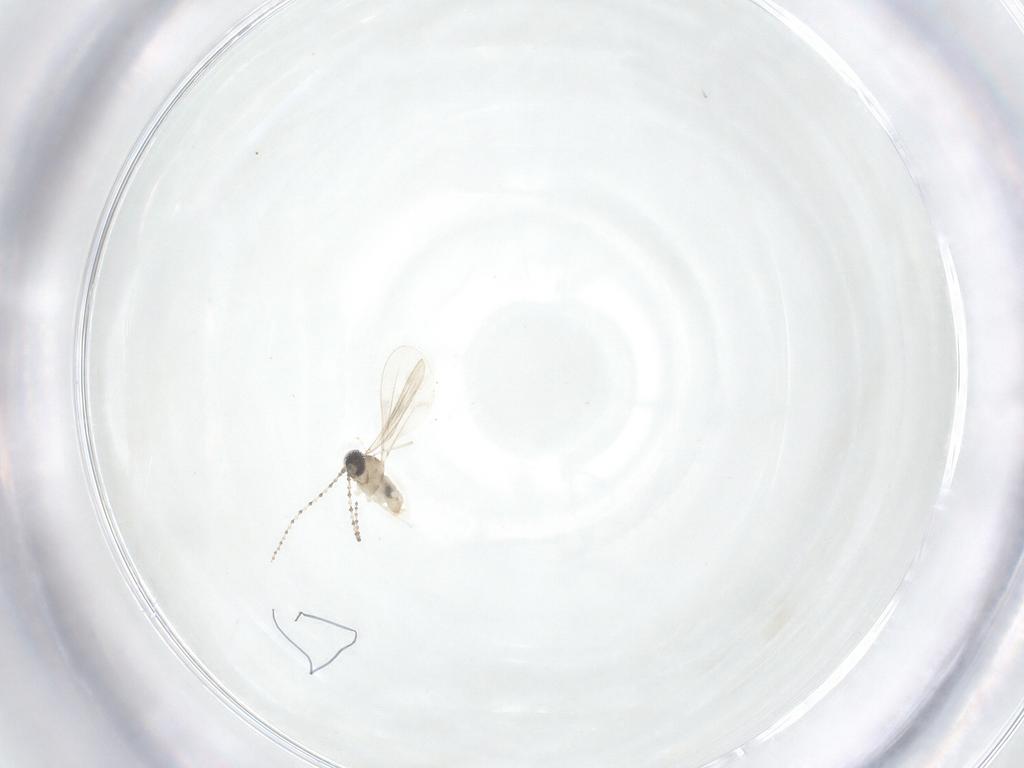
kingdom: Animalia
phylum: Arthropoda
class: Insecta
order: Diptera
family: Cecidomyiidae
